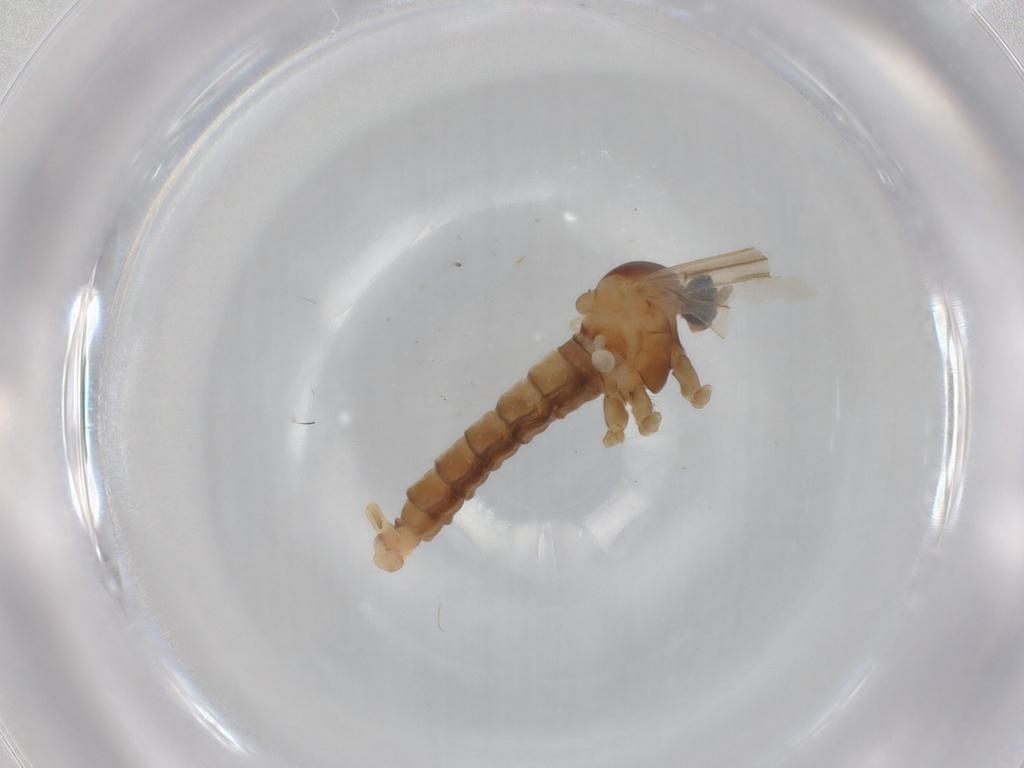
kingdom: Animalia
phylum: Arthropoda
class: Insecta
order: Diptera
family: Cecidomyiidae
